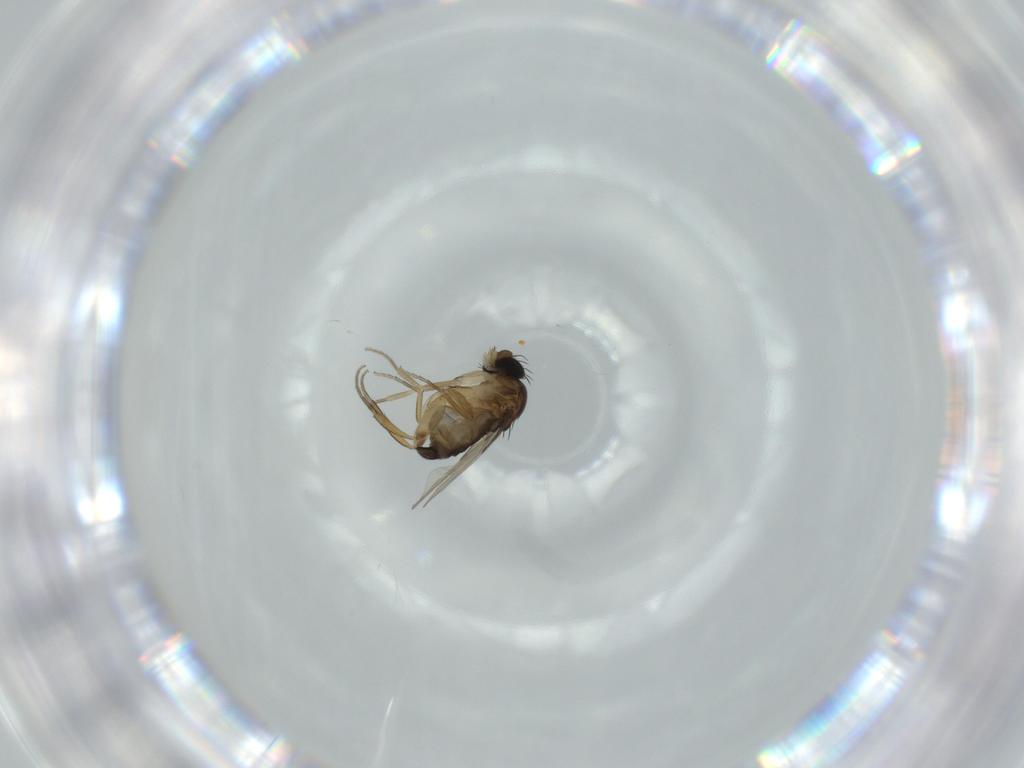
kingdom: Animalia
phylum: Arthropoda
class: Insecta
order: Diptera
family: Phoridae
